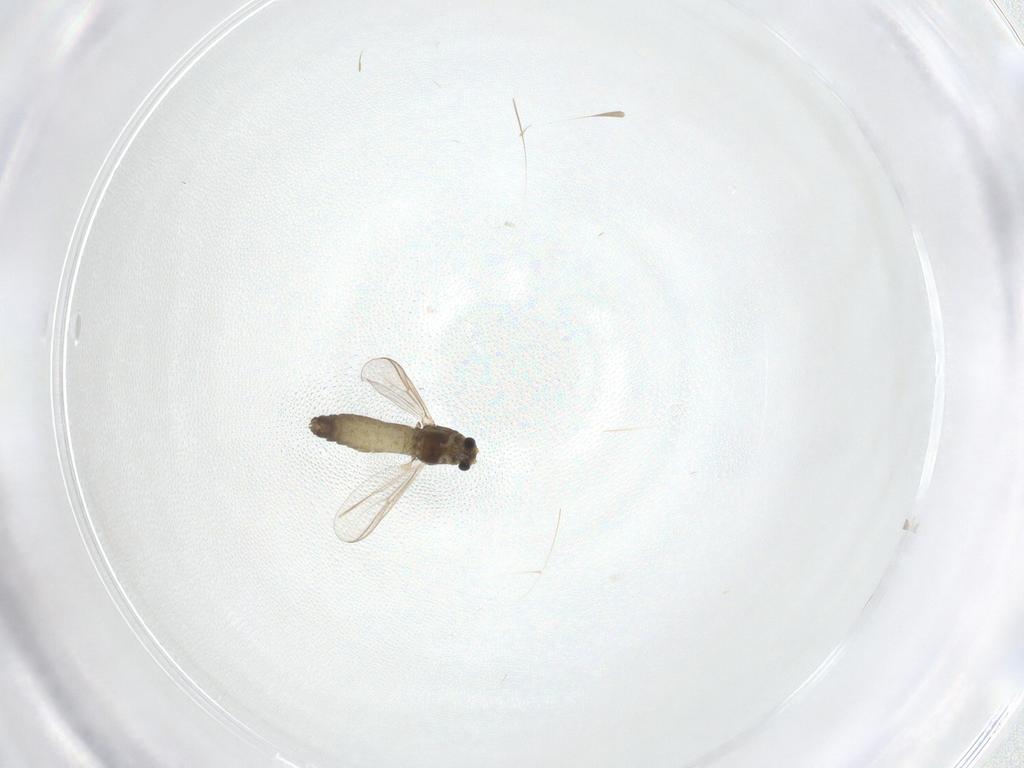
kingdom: Animalia
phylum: Arthropoda
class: Insecta
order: Diptera
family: Chironomidae
